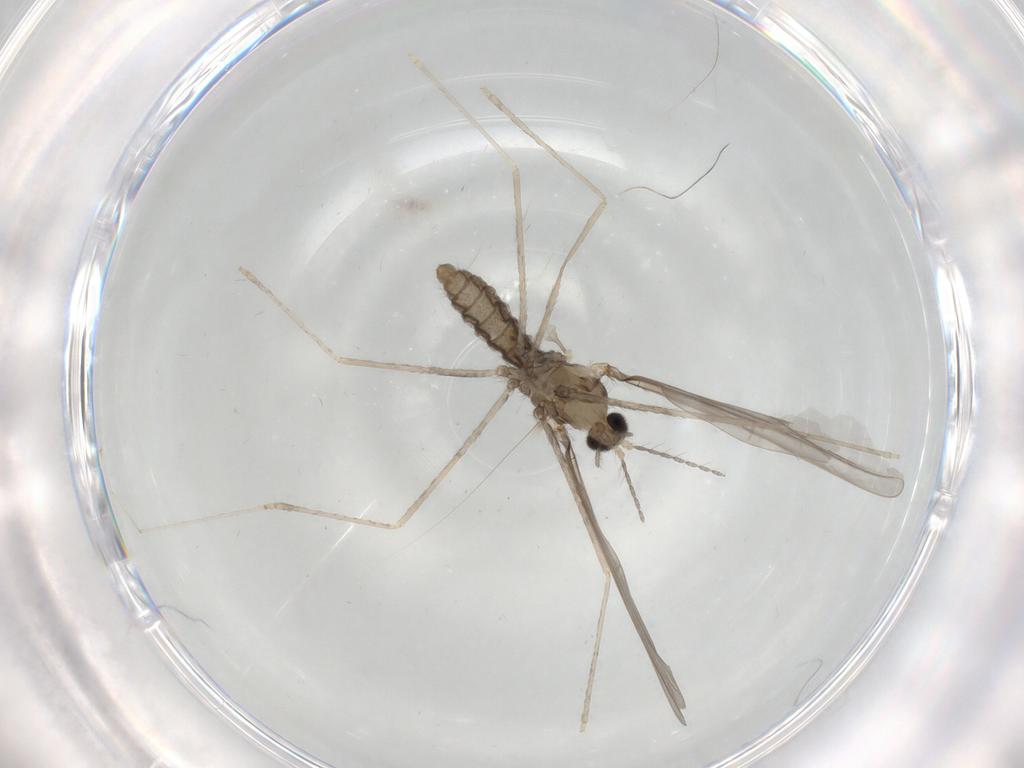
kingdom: Animalia
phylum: Arthropoda
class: Insecta
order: Diptera
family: Cecidomyiidae
